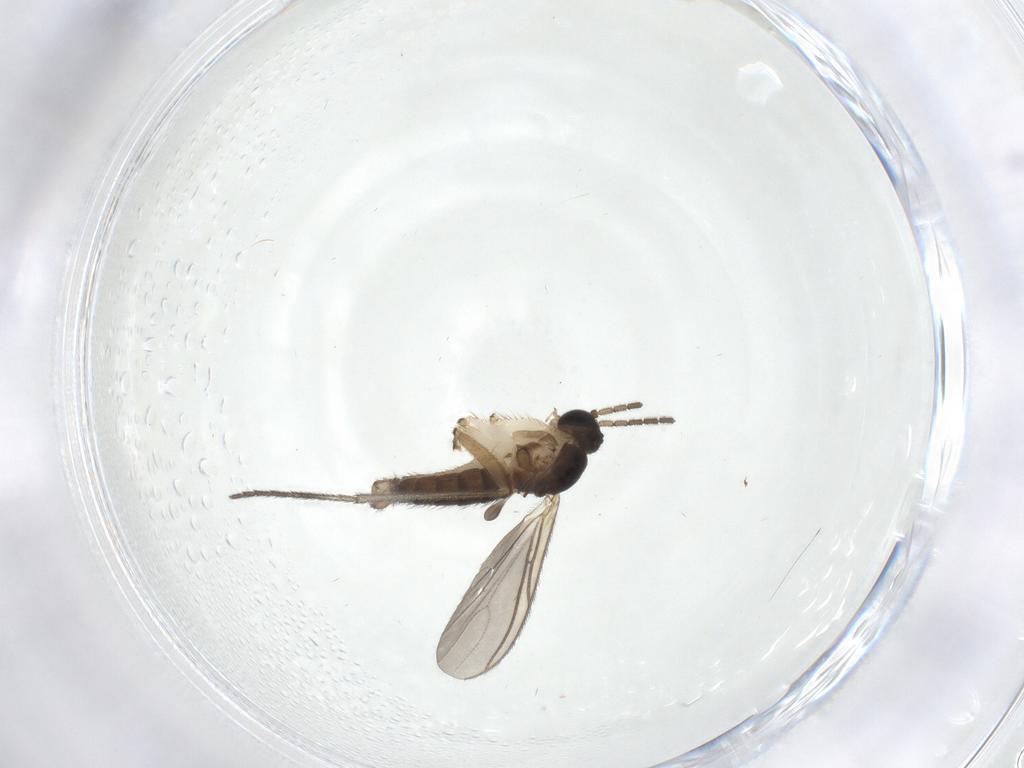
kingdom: Animalia
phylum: Arthropoda
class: Insecta
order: Diptera
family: Sciaridae
